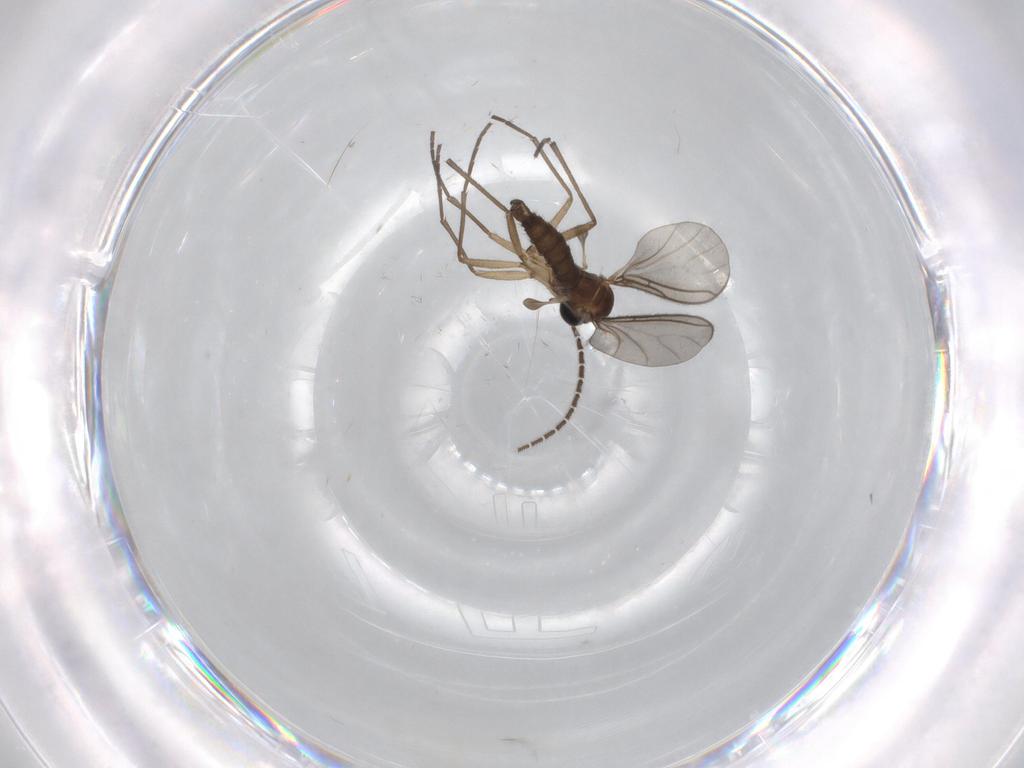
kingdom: Animalia
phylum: Arthropoda
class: Insecta
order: Diptera
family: Sciaridae
